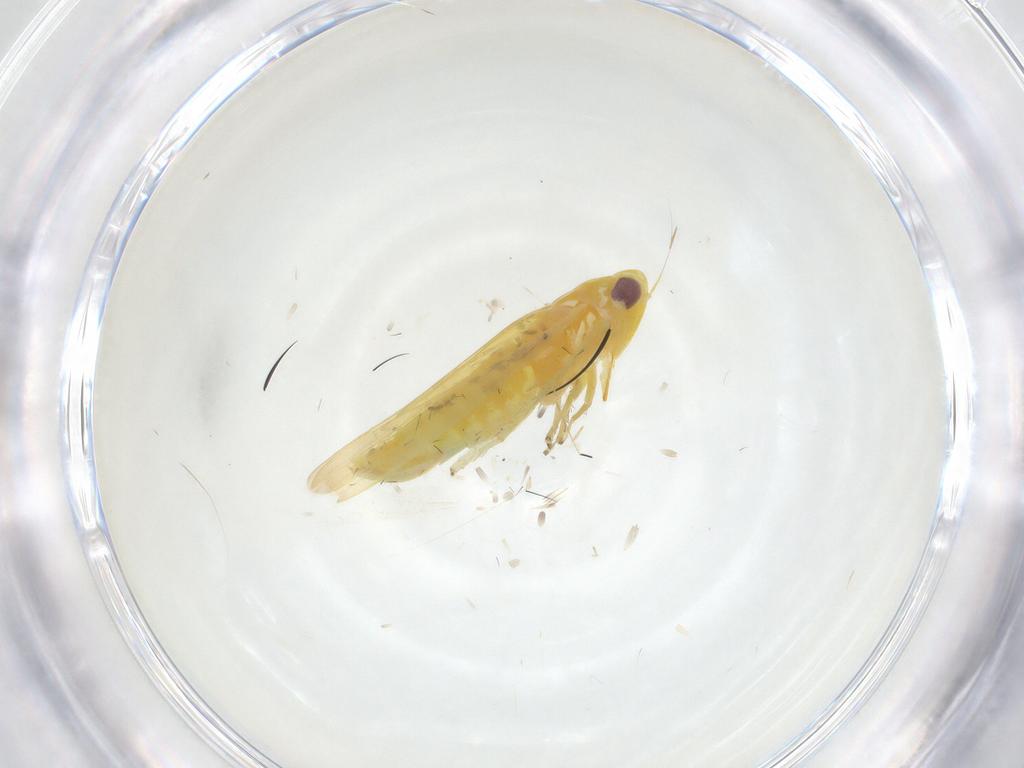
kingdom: Animalia
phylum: Arthropoda
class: Insecta
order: Hemiptera
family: Cicadellidae
